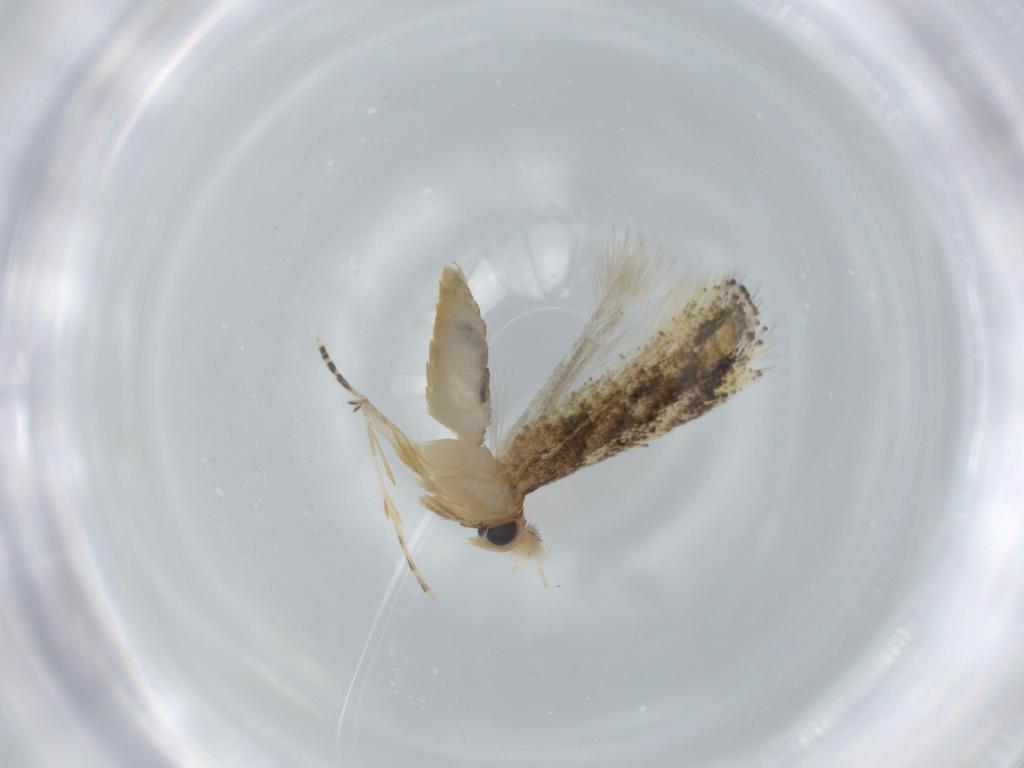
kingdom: Animalia
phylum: Arthropoda
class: Insecta
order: Lepidoptera
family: Bucculatricidae
